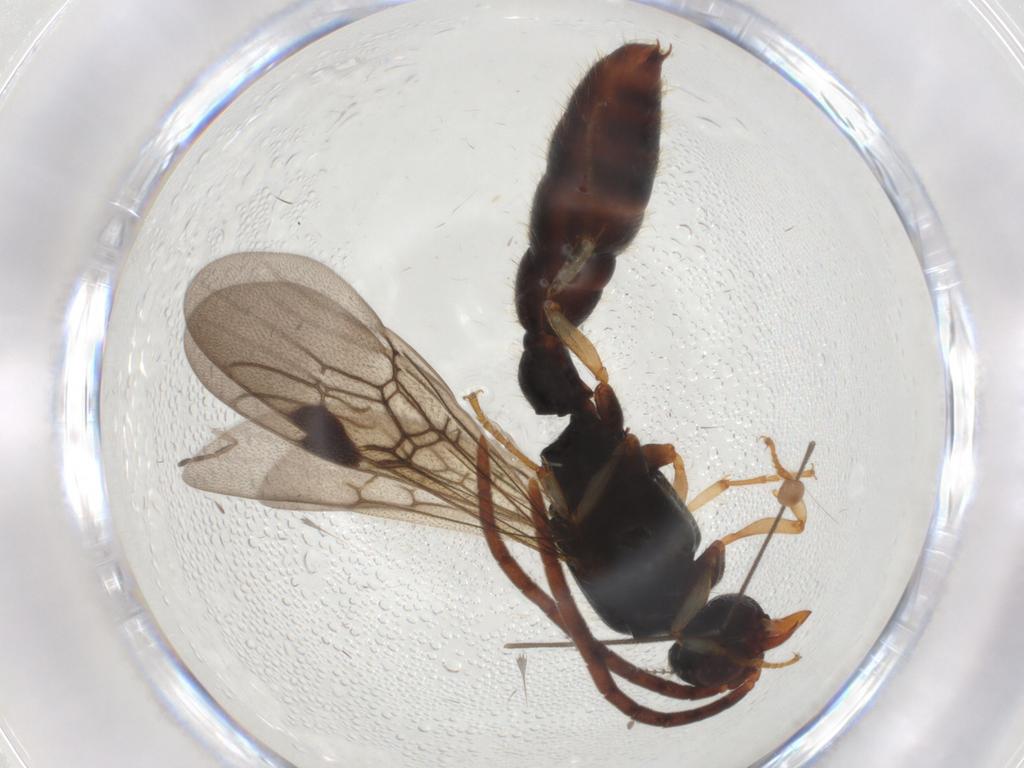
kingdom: Animalia
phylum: Arthropoda
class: Insecta
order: Hymenoptera
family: Formicidae
